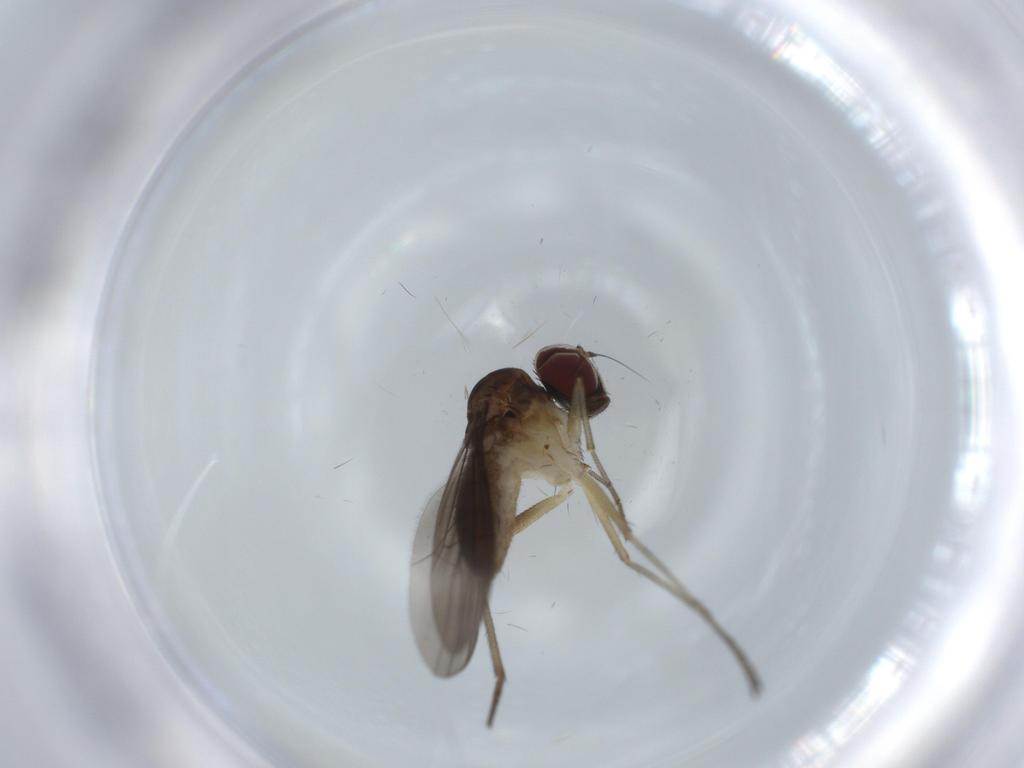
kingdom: Animalia
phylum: Arthropoda
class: Insecta
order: Diptera
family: Dolichopodidae
